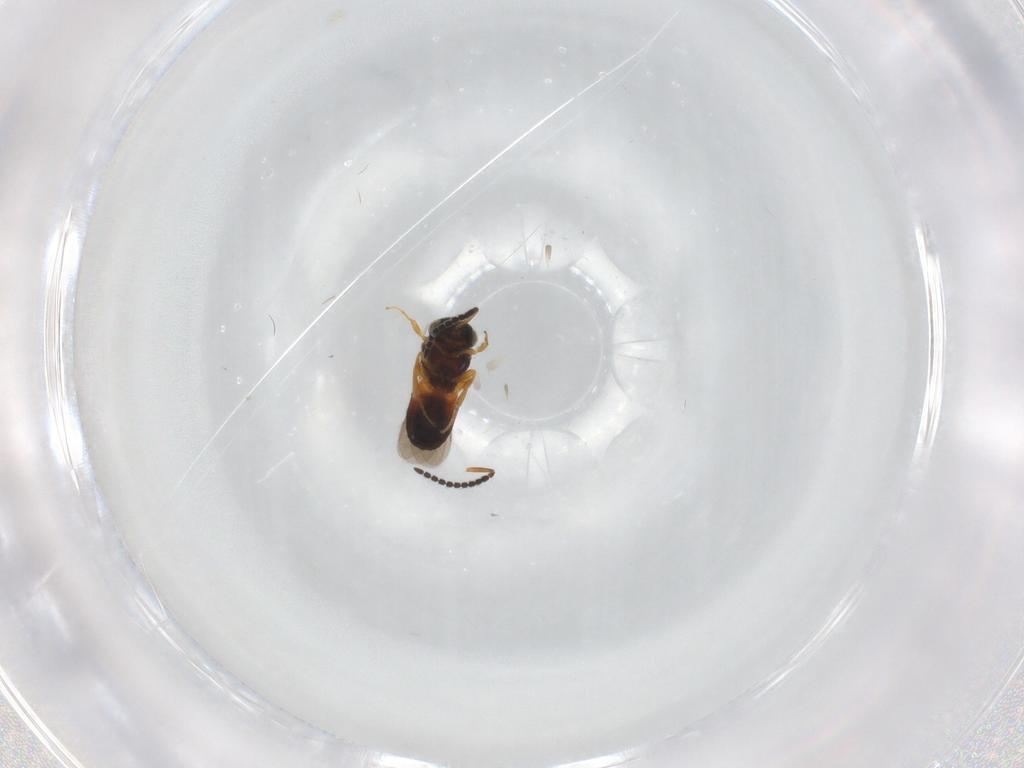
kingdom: Animalia
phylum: Arthropoda
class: Insecta
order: Hymenoptera
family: Scelionidae
